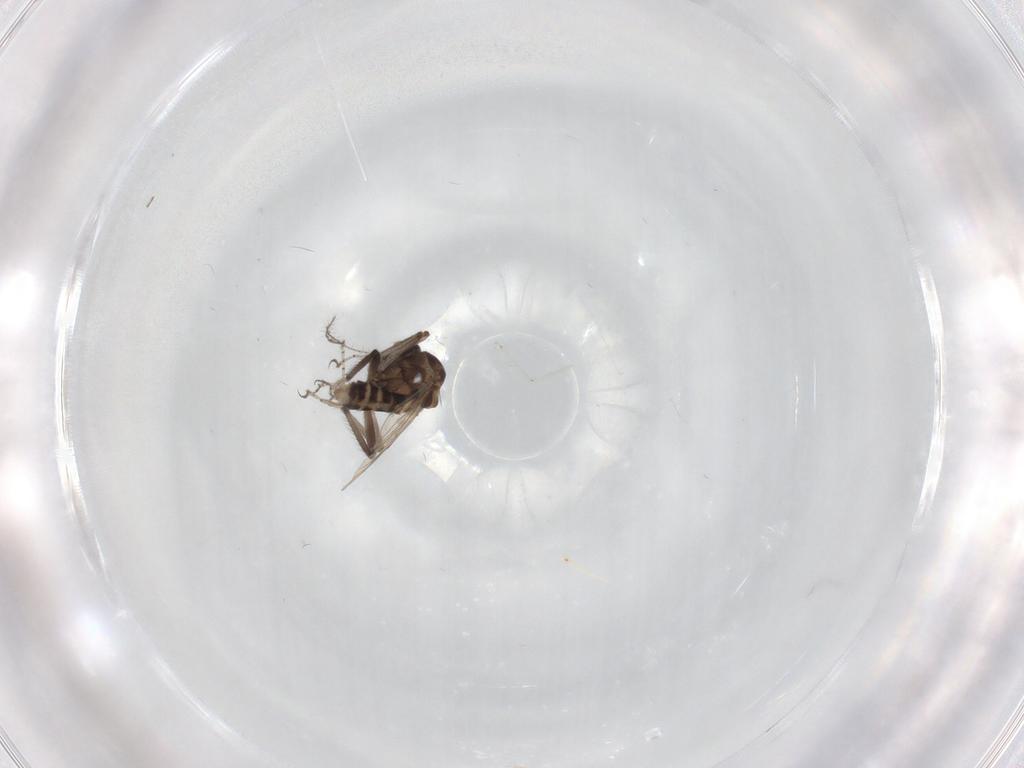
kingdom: Animalia
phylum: Arthropoda
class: Insecta
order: Diptera
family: Ceratopogonidae
